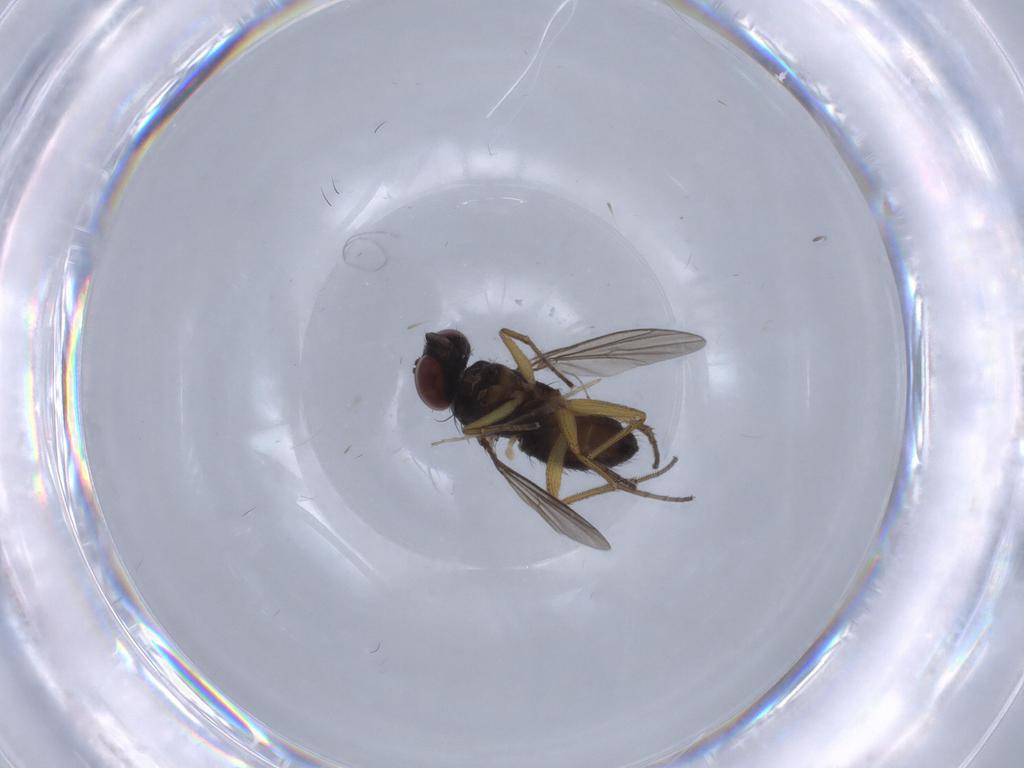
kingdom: Animalia
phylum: Arthropoda
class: Insecta
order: Diptera
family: Dolichopodidae
